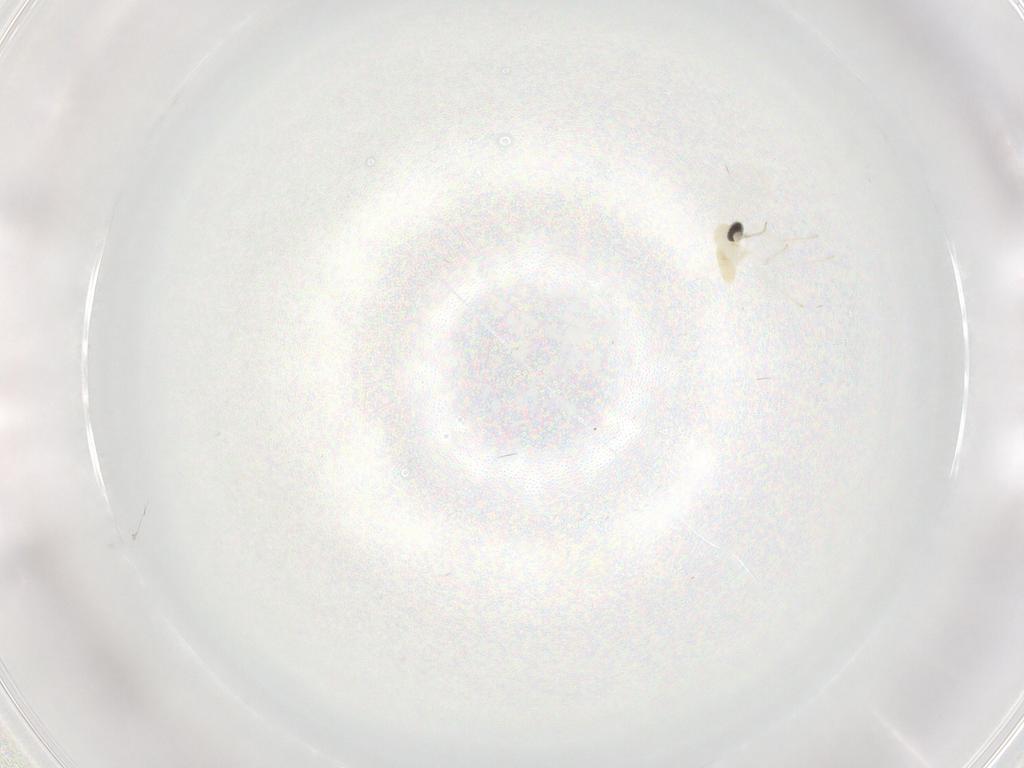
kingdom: Animalia
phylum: Arthropoda
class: Insecta
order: Diptera
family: Cecidomyiidae
